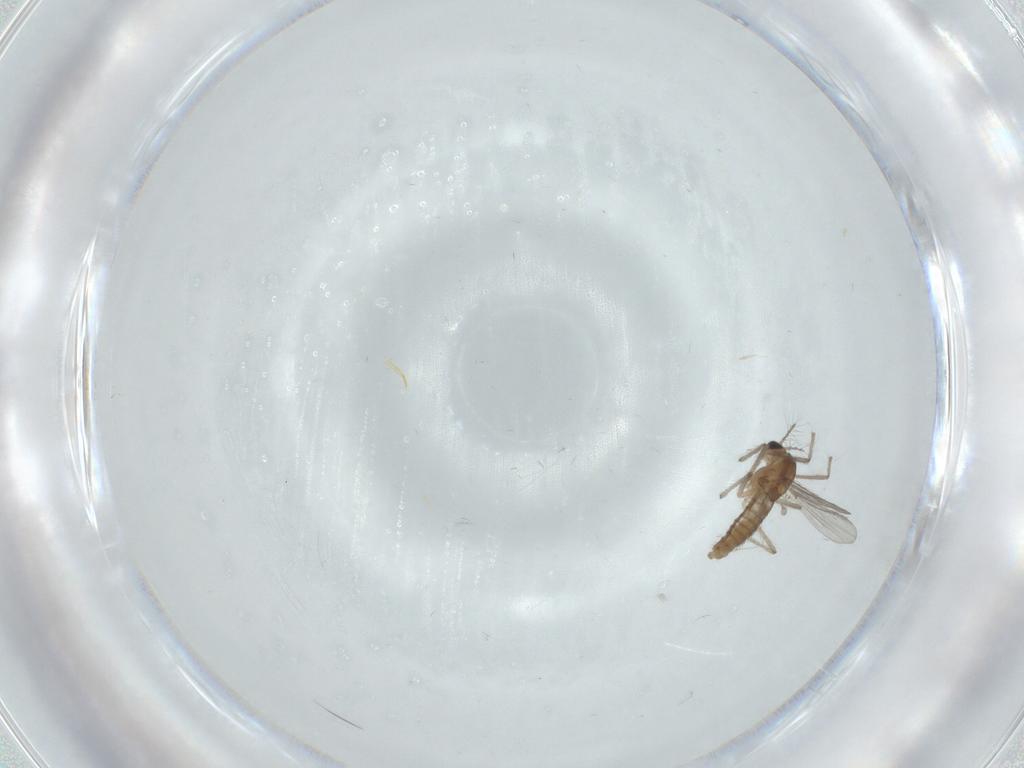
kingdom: Animalia
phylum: Arthropoda
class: Insecta
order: Diptera
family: Chironomidae
